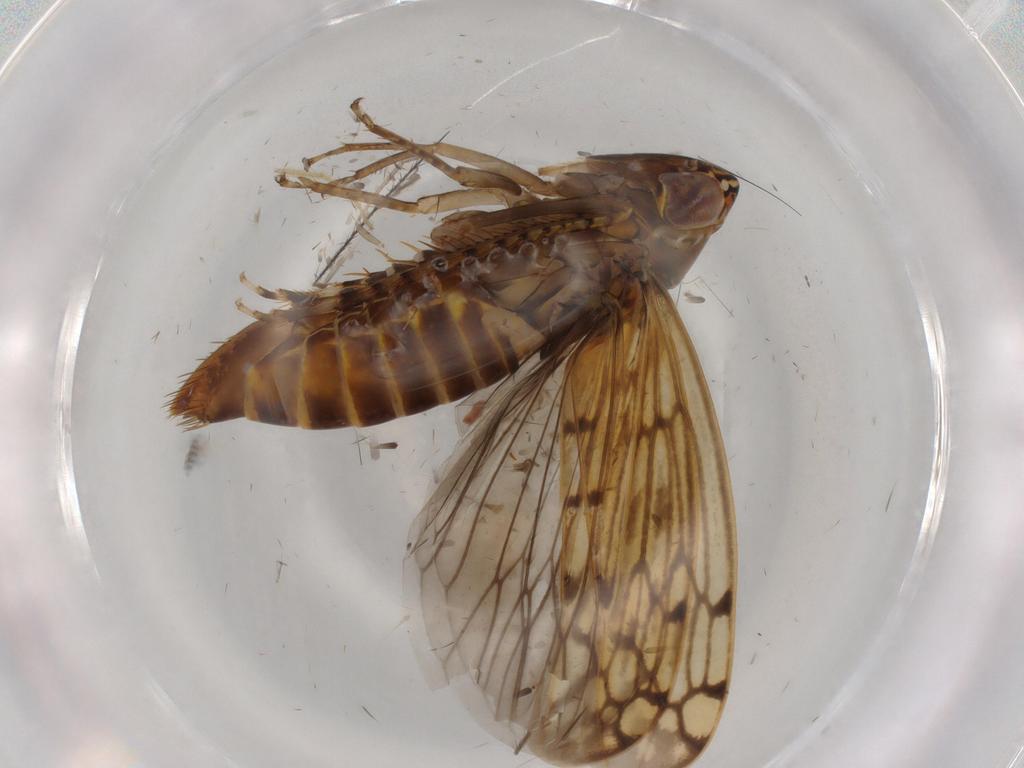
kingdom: Animalia
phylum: Arthropoda
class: Insecta
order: Hemiptera
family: Cicadellidae
